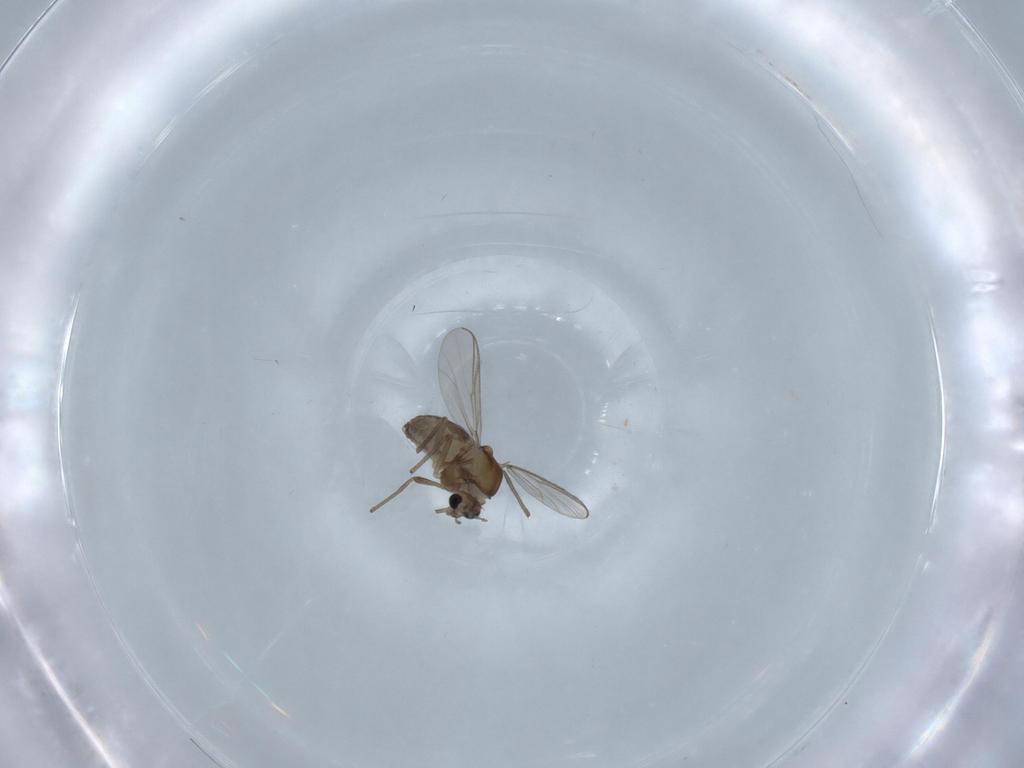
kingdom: Animalia
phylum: Arthropoda
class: Insecta
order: Diptera
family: Chironomidae
